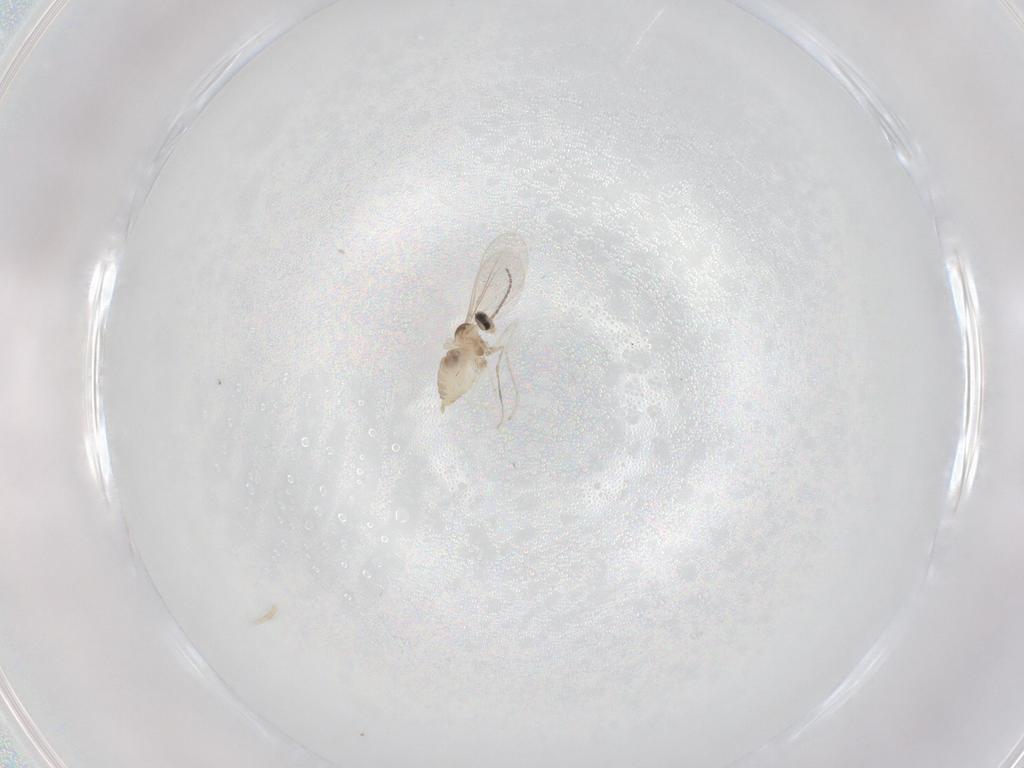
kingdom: Animalia
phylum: Arthropoda
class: Insecta
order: Diptera
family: Cecidomyiidae
